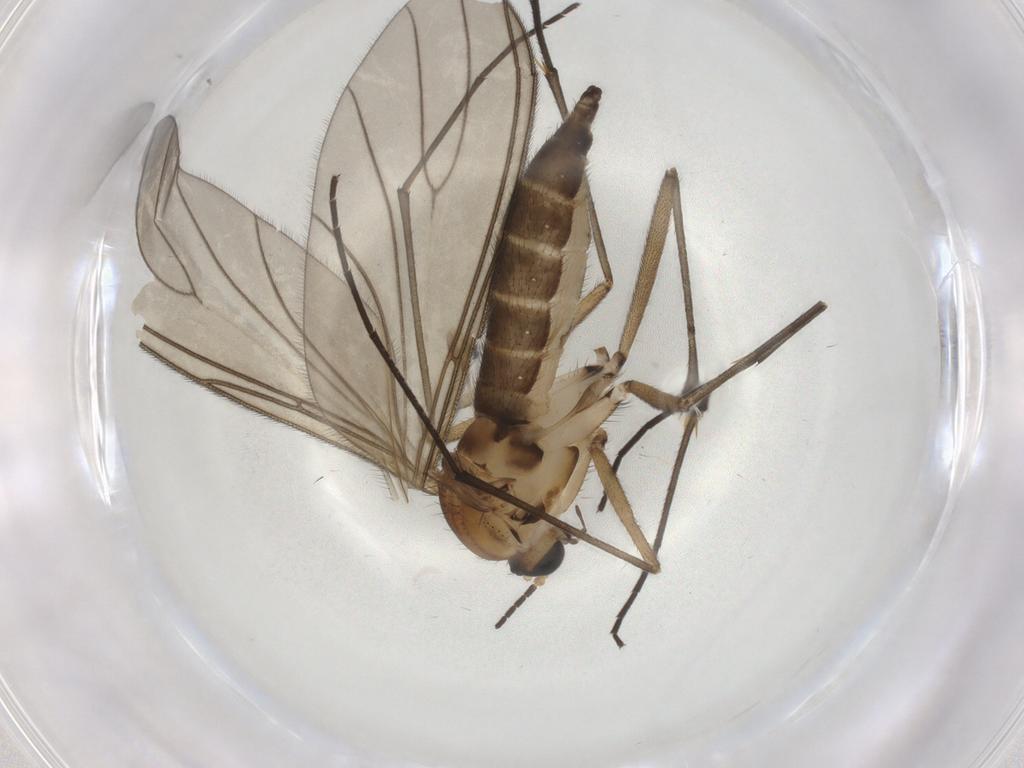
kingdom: Animalia
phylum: Arthropoda
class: Insecta
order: Diptera
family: Sciaridae
